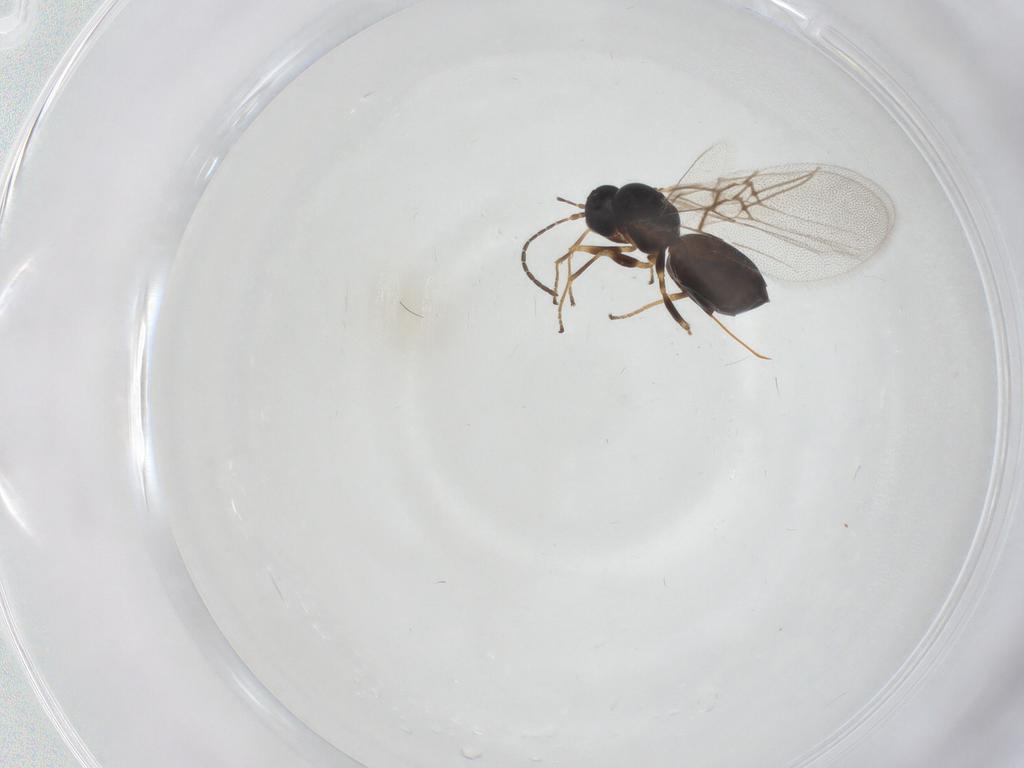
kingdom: Animalia
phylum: Arthropoda
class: Insecta
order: Hymenoptera
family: Cynipidae
